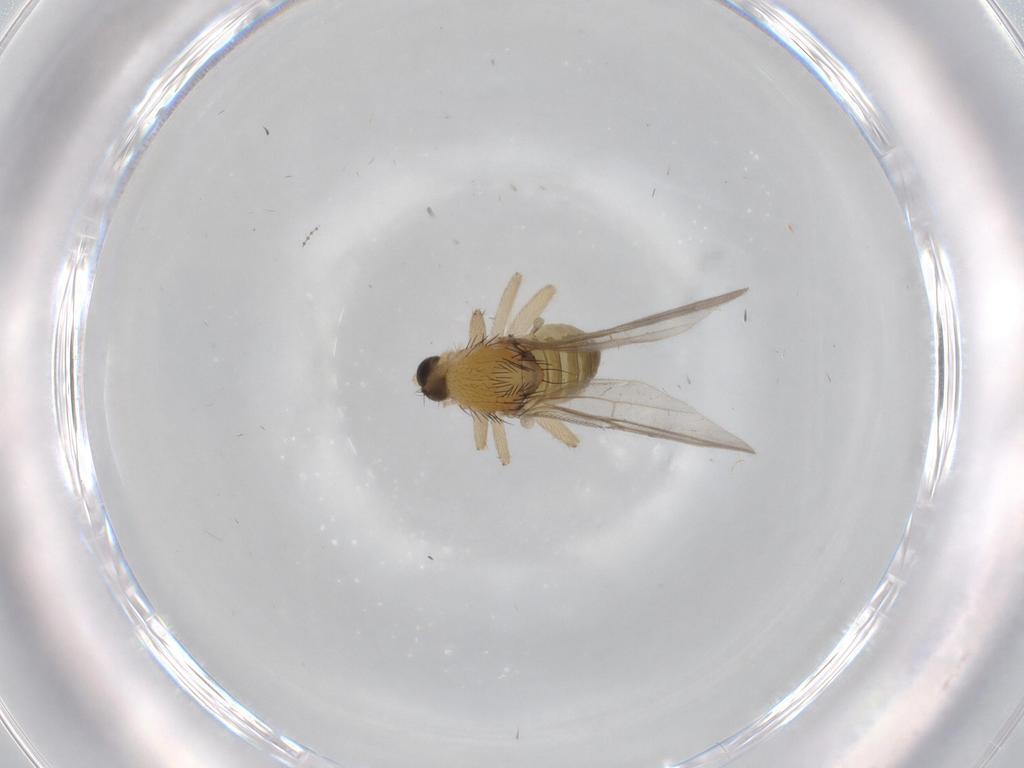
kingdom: Animalia
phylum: Arthropoda
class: Insecta
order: Diptera
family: Hybotidae
